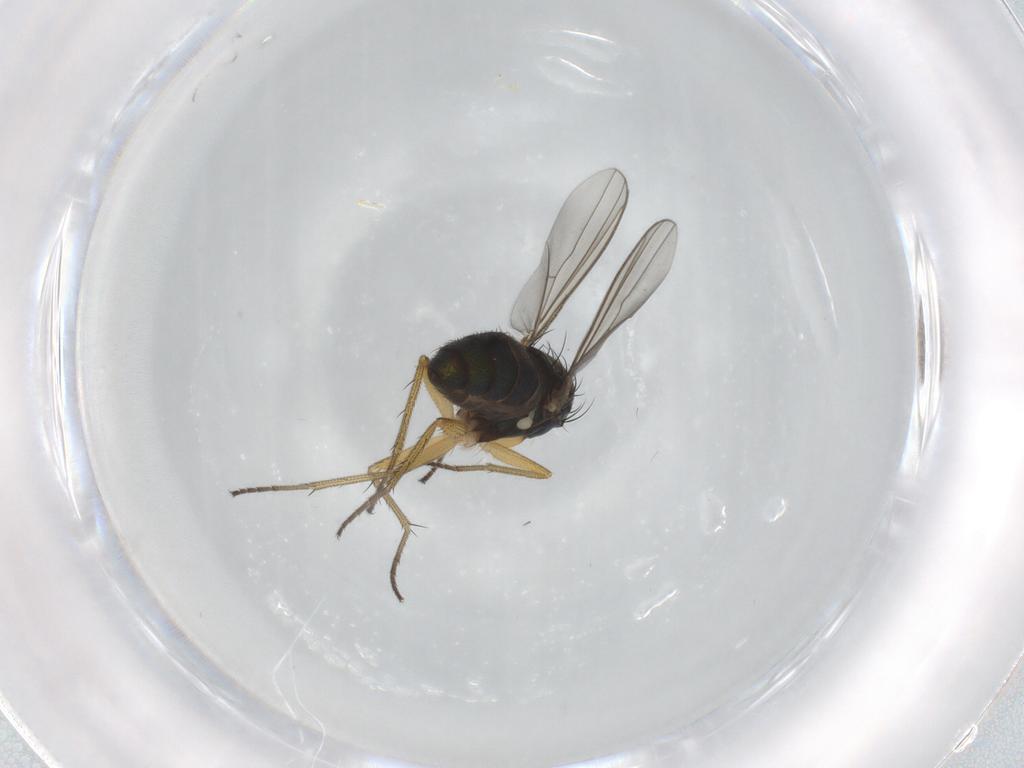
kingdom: Animalia
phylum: Arthropoda
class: Insecta
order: Diptera
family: Dolichopodidae
